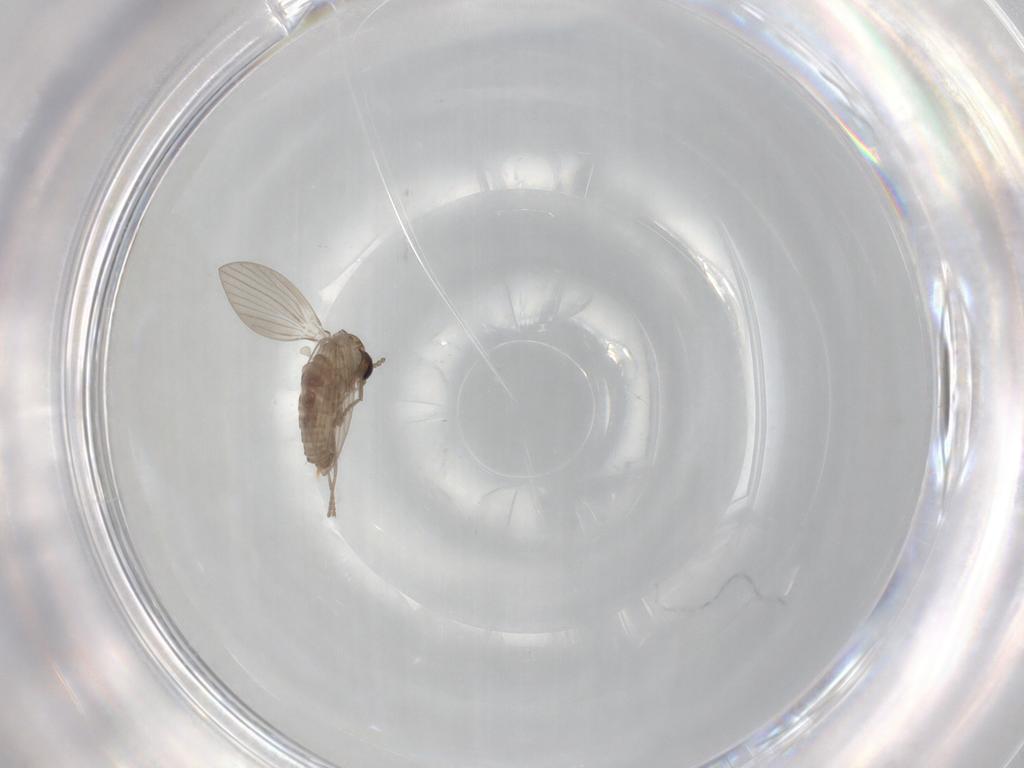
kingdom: Animalia
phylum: Arthropoda
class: Insecta
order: Diptera
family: Psychodidae
